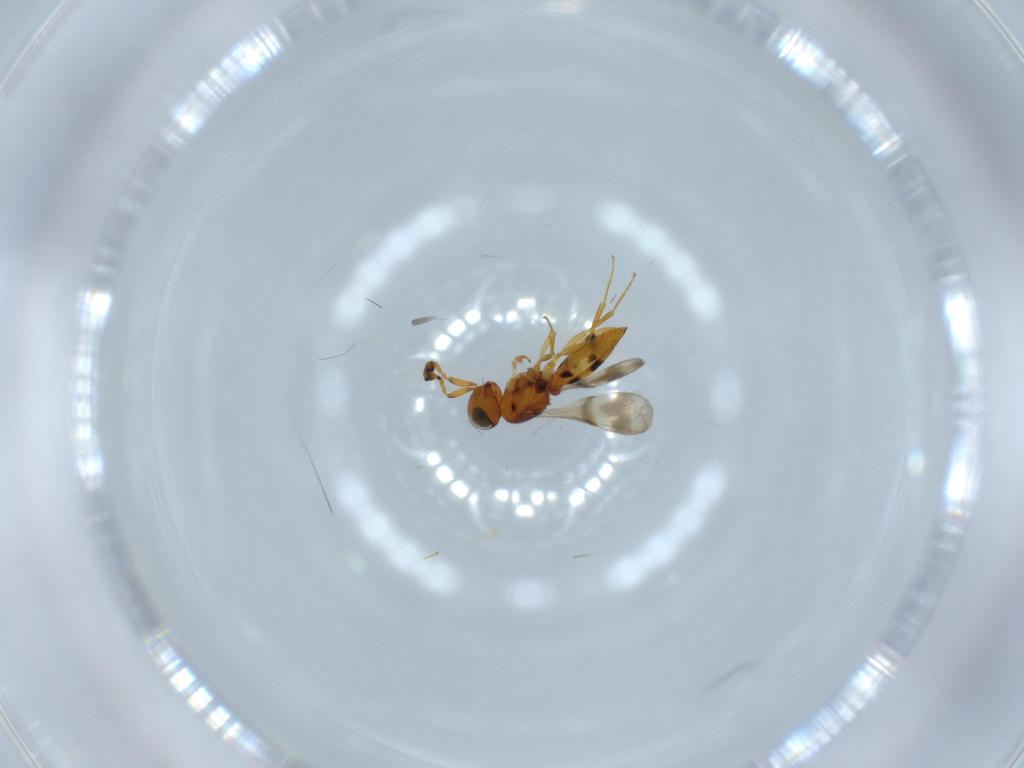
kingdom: Animalia
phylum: Arthropoda
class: Insecta
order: Hymenoptera
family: Scelionidae
